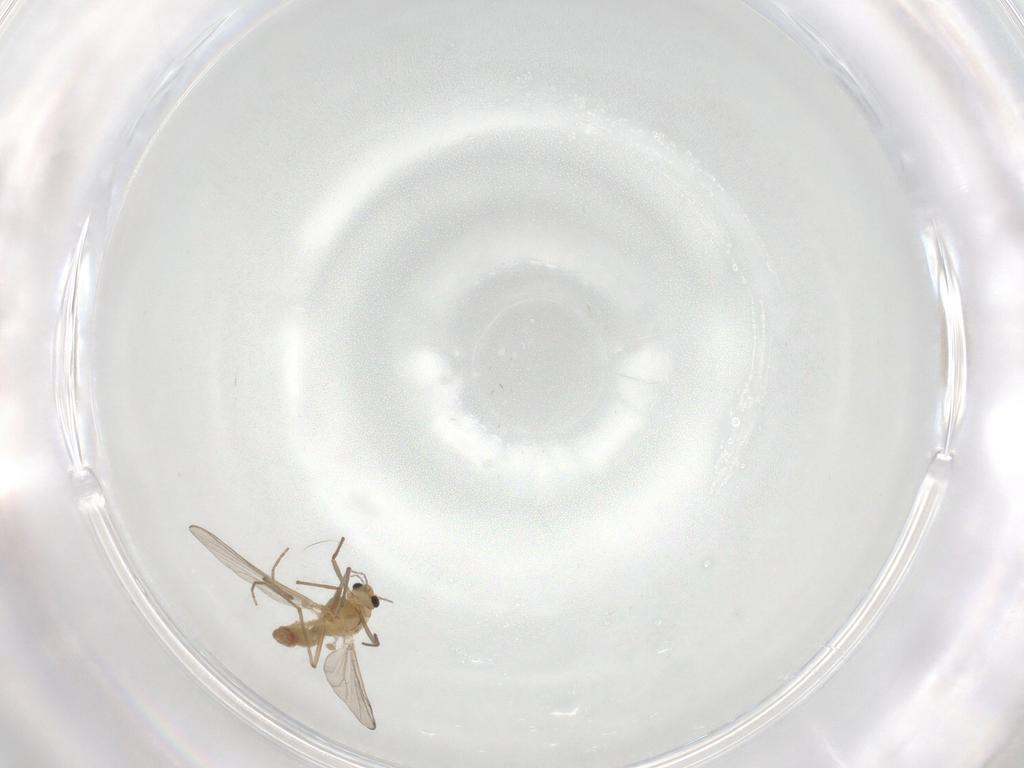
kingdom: Animalia
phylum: Arthropoda
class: Insecta
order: Diptera
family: Chironomidae
